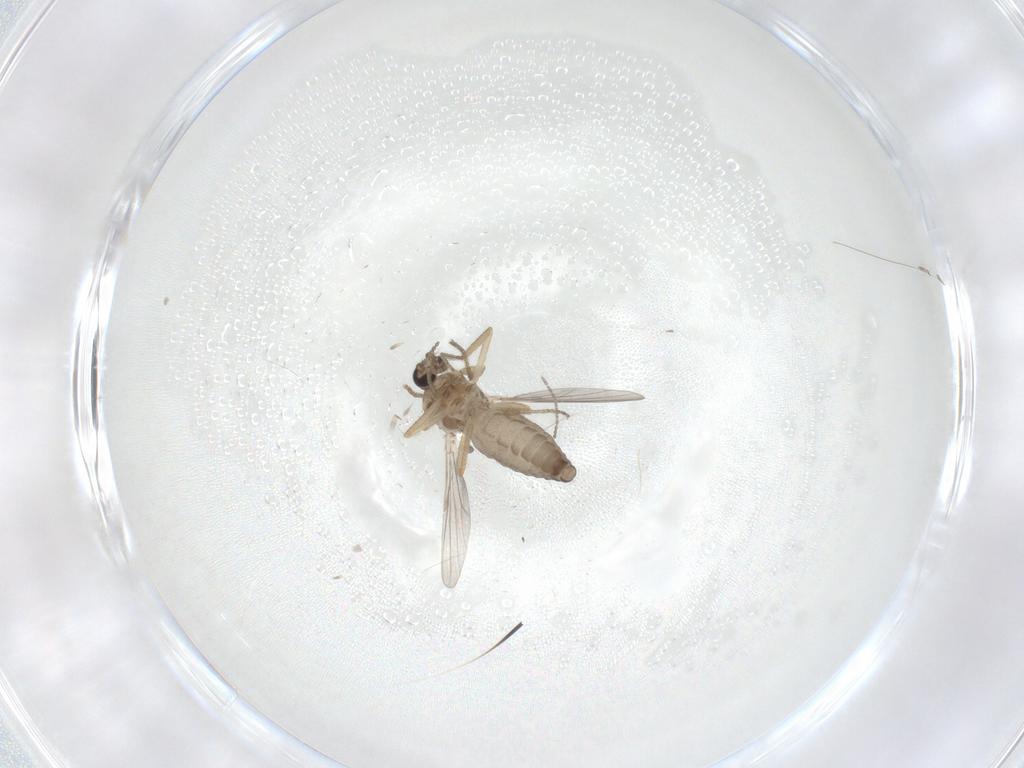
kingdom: Animalia
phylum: Arthropoda
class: Insecta
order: Diptera
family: Ceratopogonidae
